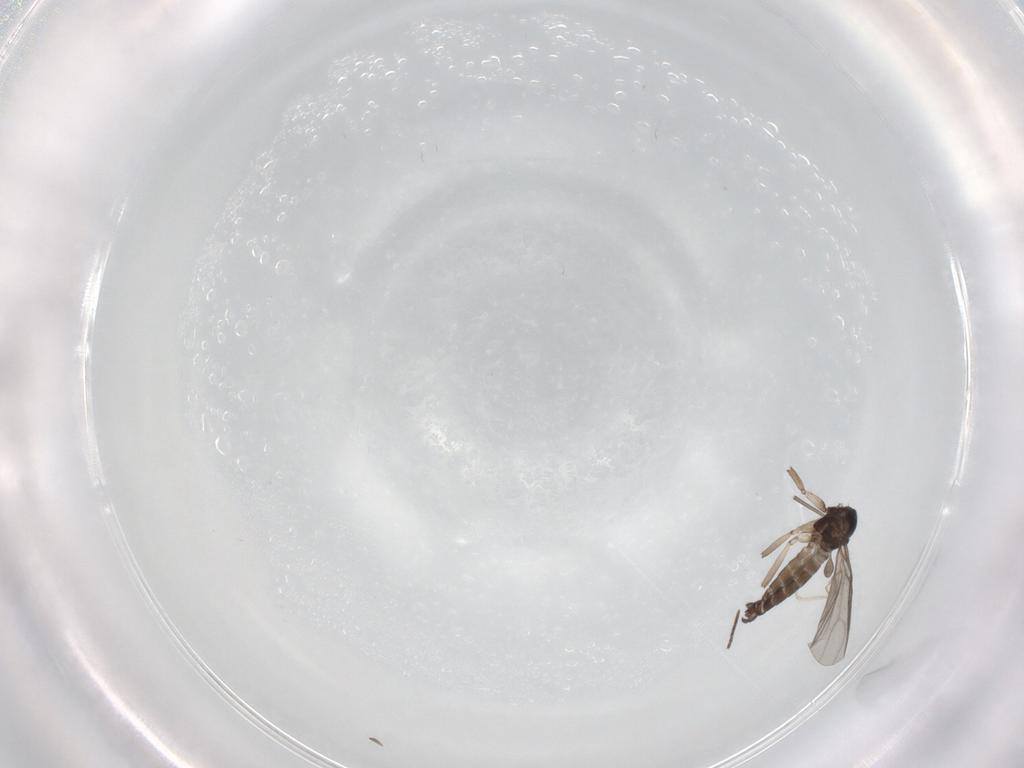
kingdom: Animalia
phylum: Arthropoda
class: Insecta
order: Diptera
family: Sciaridae
